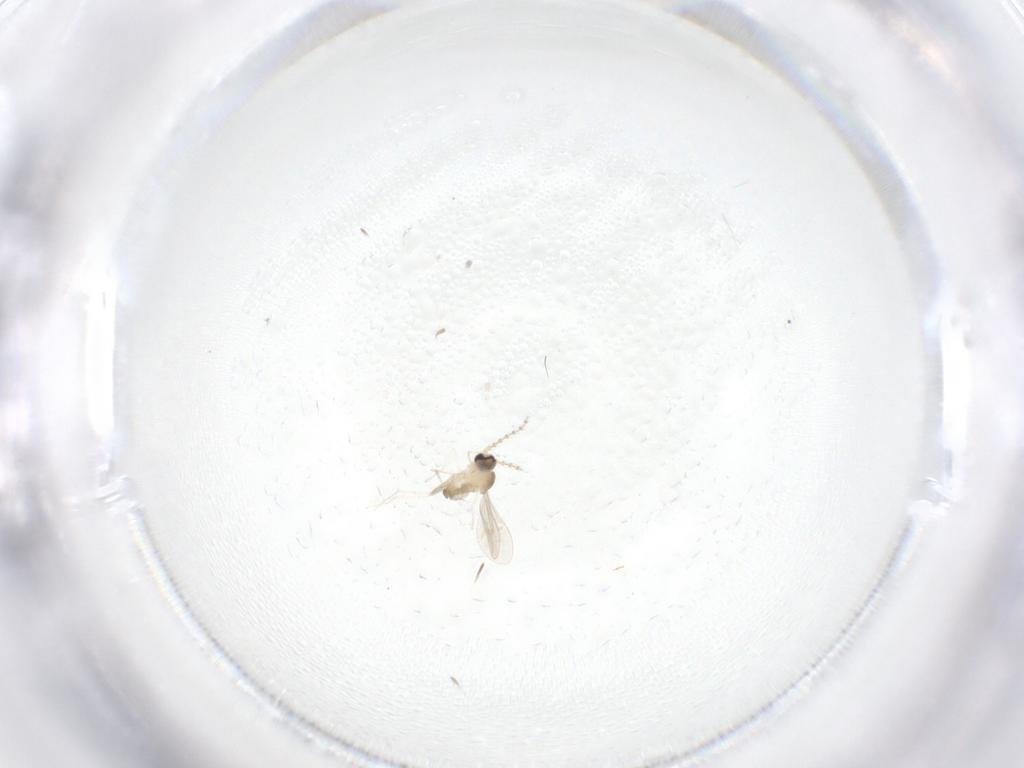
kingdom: Animalia
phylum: Arthropoda
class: Insecta
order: Diptera
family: Cecidomyiidae
